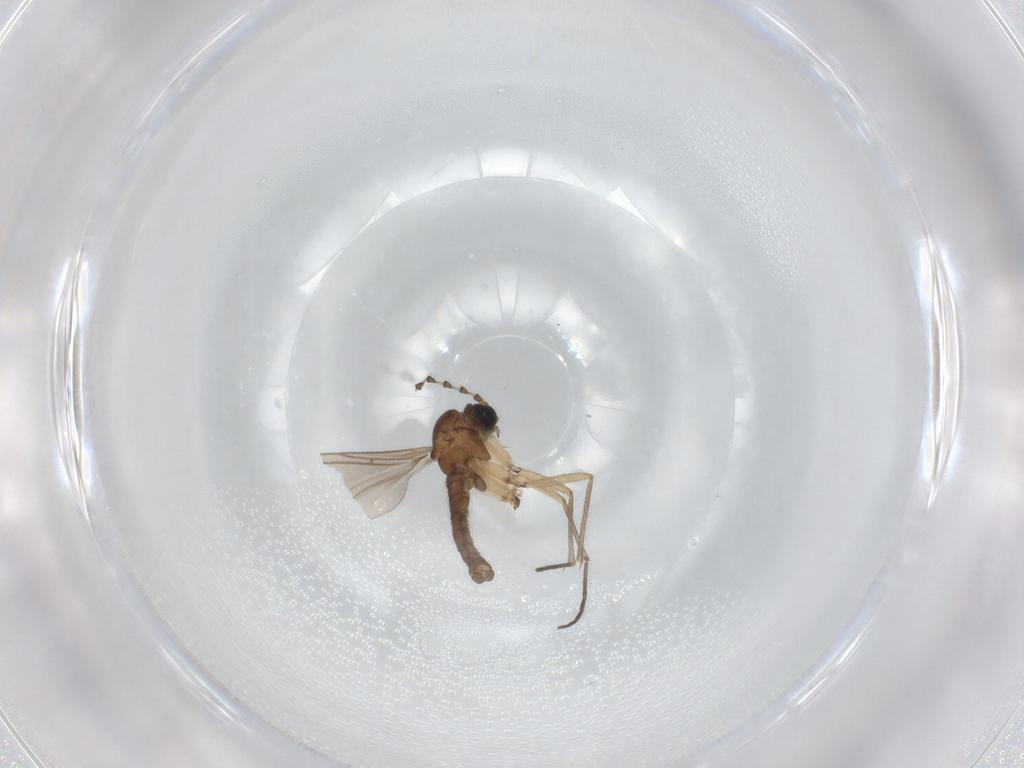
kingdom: Animalia
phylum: Arthropoda
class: Insecta
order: Diptera
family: Sciaridae
